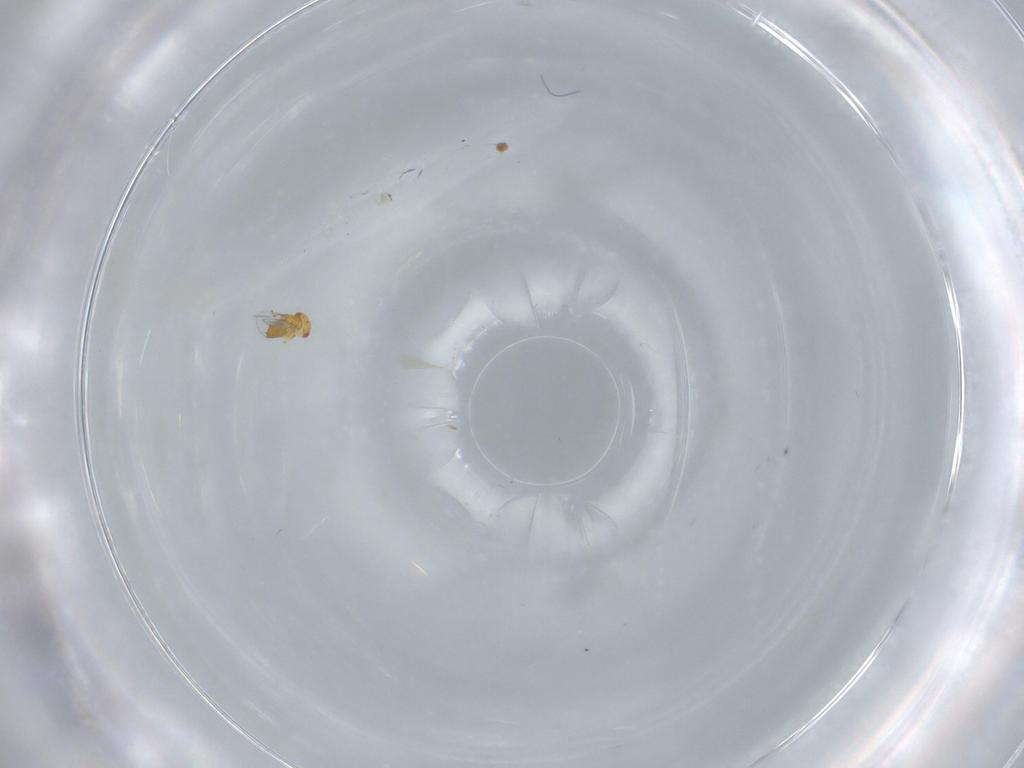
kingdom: Animalia
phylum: Arthropoda
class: Insecta
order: Hymenoptera
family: Trichogrammatidae
